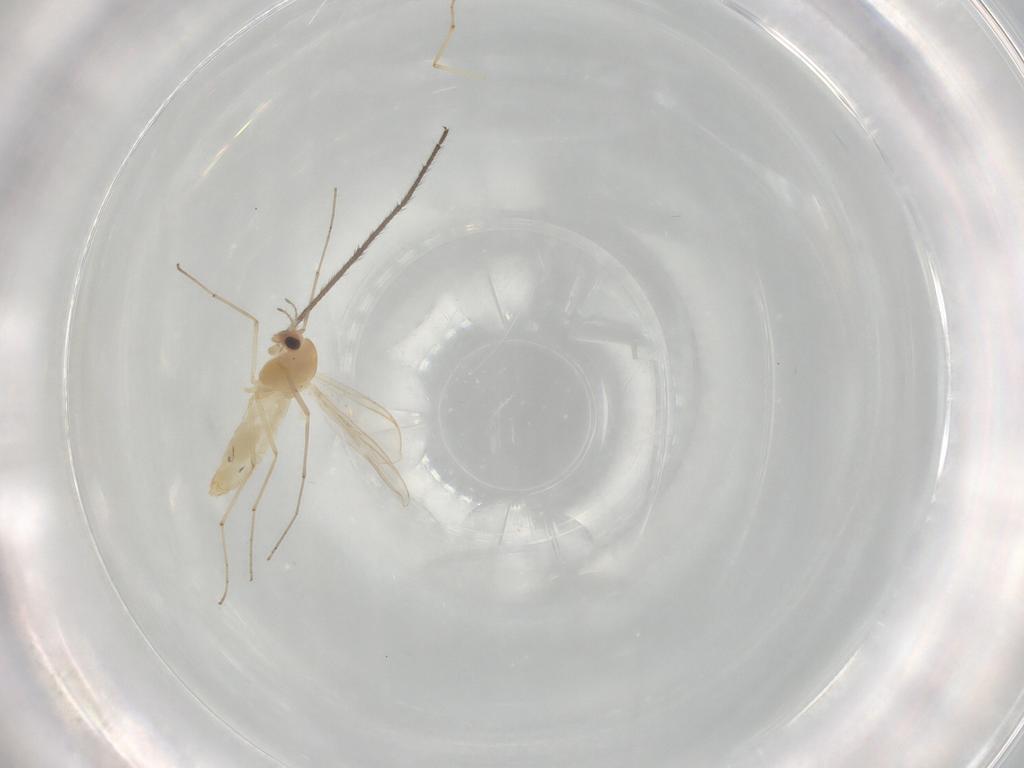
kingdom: Animalia
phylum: Arthropoda
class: Insecta
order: Diptera
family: Chironomidae
